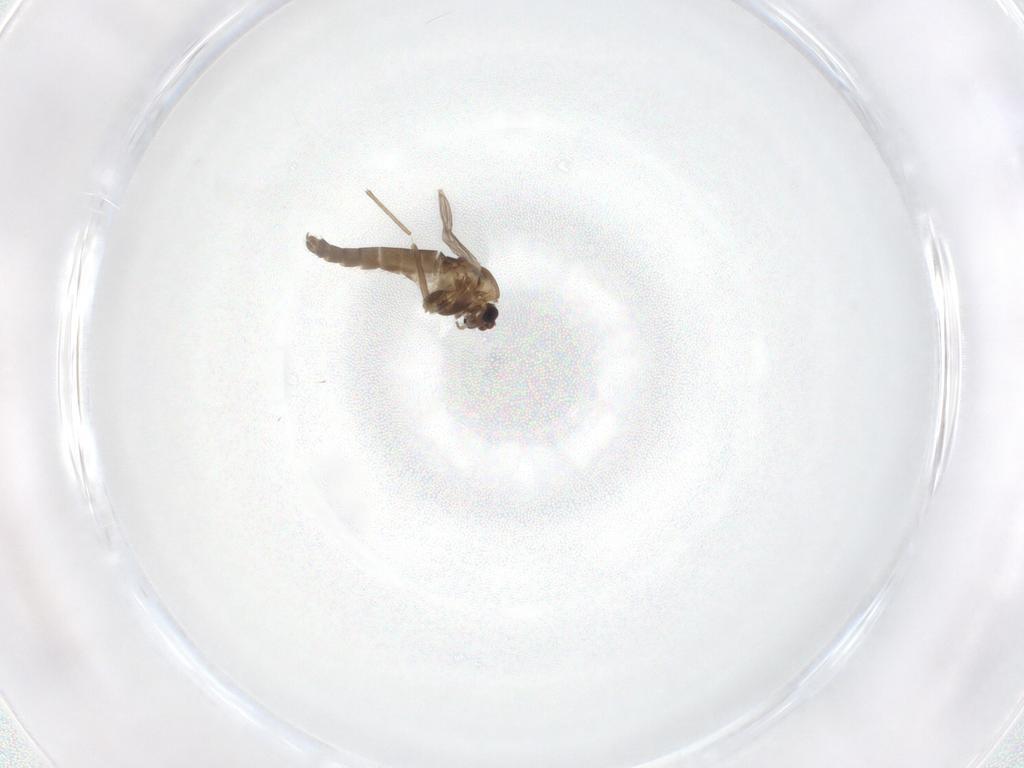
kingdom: Animalia
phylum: Arthropoda
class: Insecta
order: Diptera
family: Chironomidae
